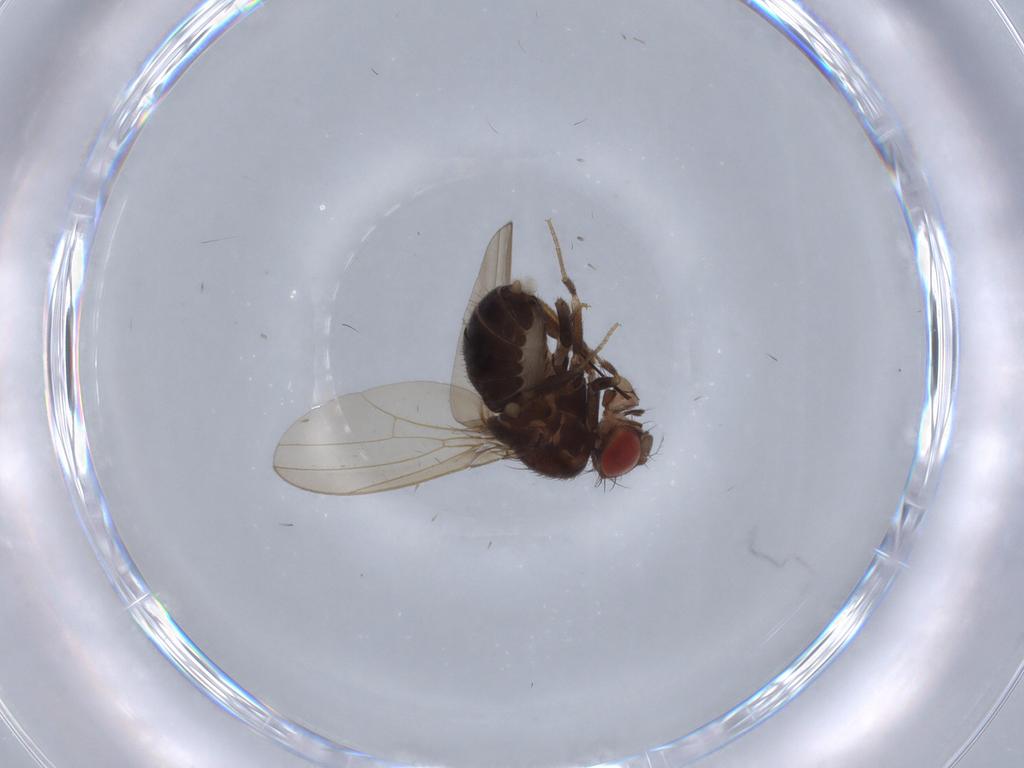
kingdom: Animalia
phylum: Arthropoda
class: Insecta
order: Diptera
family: Drosophilidae
